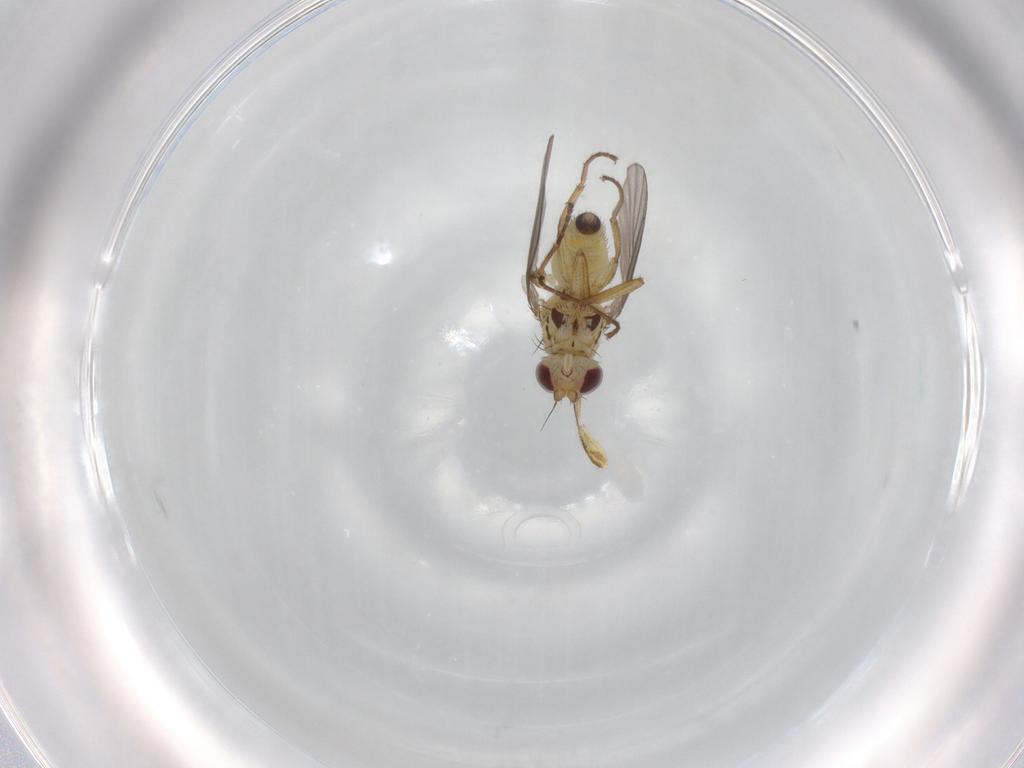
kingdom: Animalia
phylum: Arthropoda
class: Insecta
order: Diptera
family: Agromyzidae
